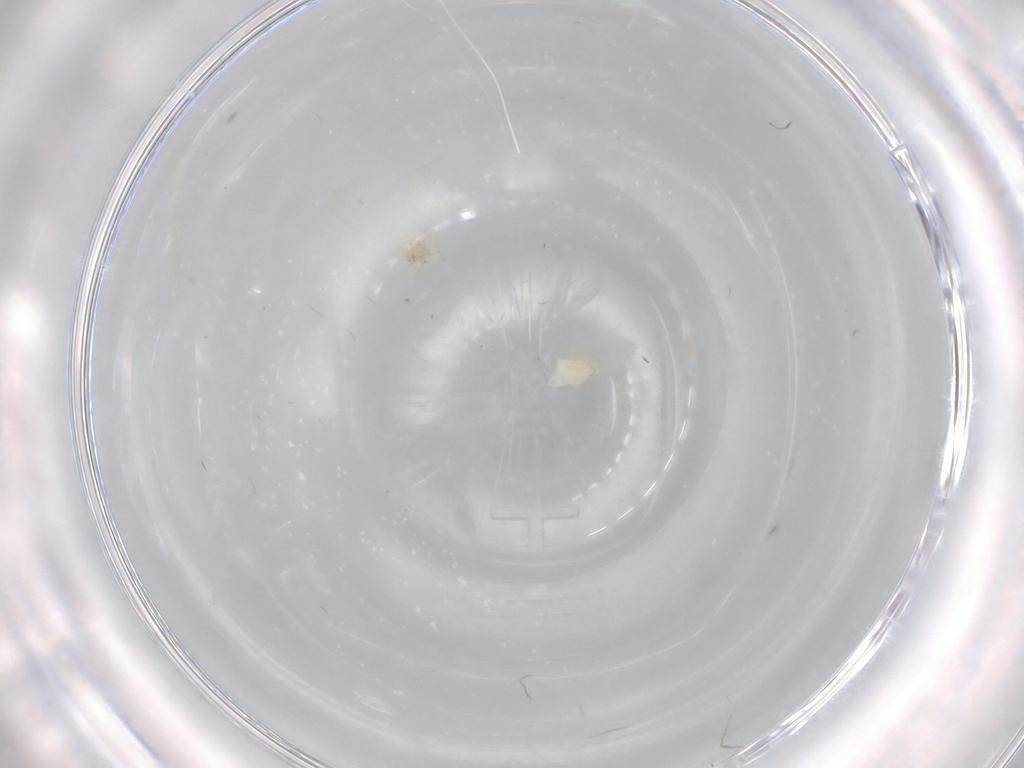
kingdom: Animalia
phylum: Arthropoda
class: Insecta
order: Hemiptera
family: Aleyrodidae
